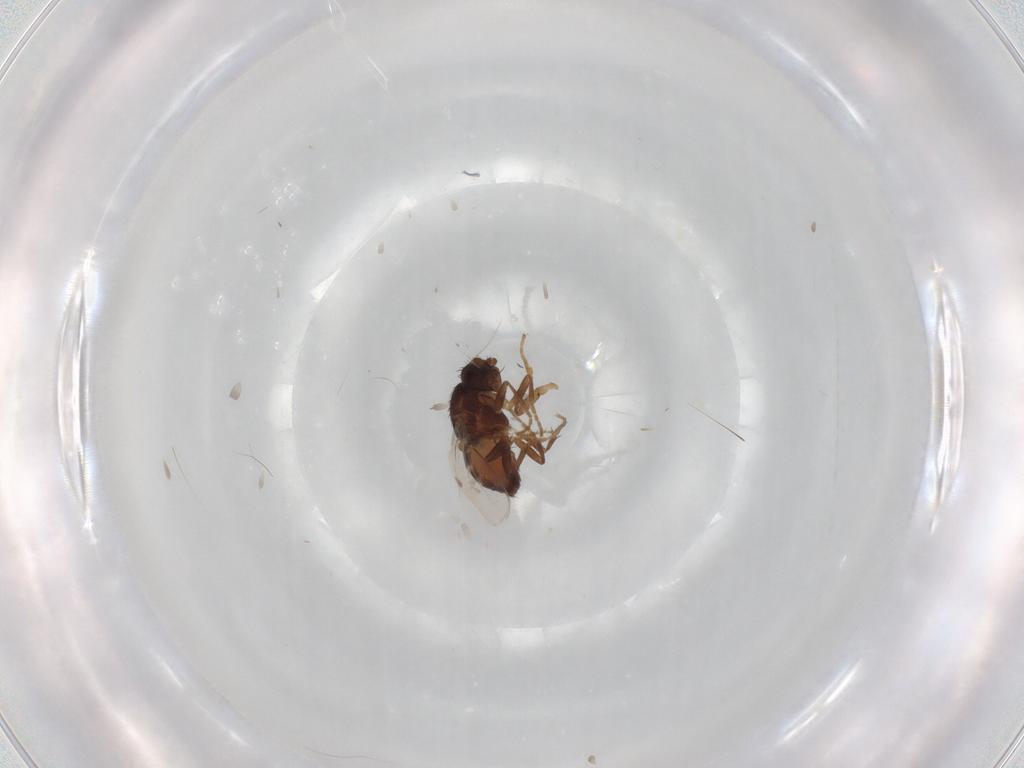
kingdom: Animalia
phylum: Arthropoda
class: Insecta
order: Diptera
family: Sphaeroceridae
